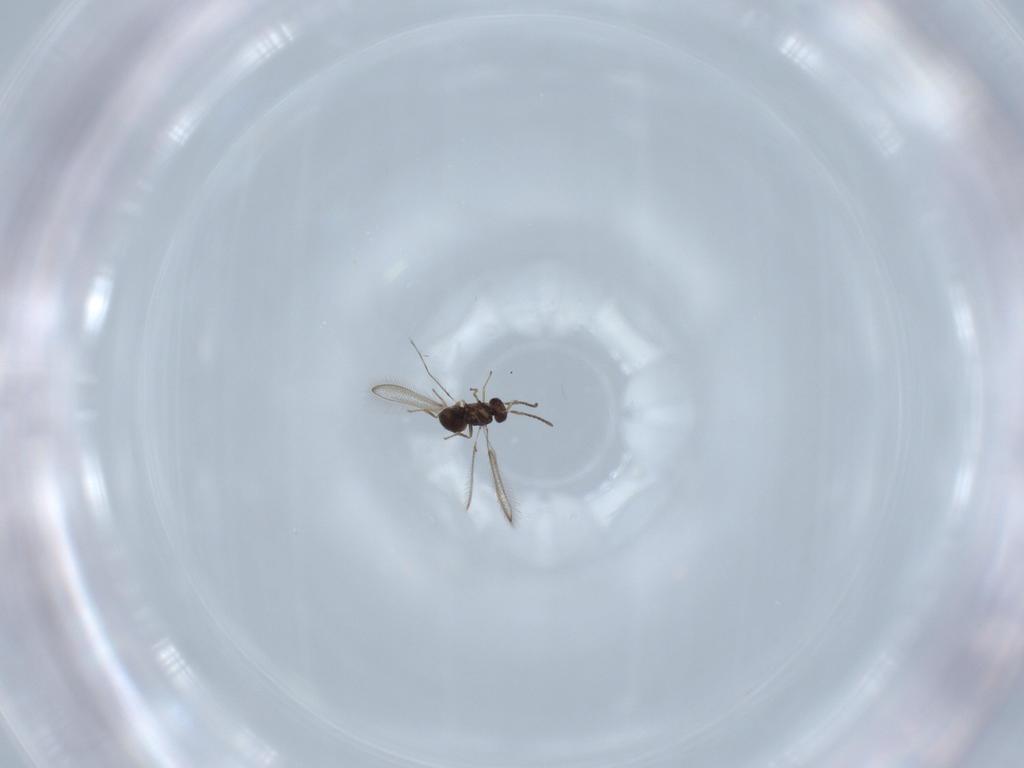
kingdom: Animalia
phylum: Arthropoda
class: Insecta
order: Hymenoptera
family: Mymaridae
